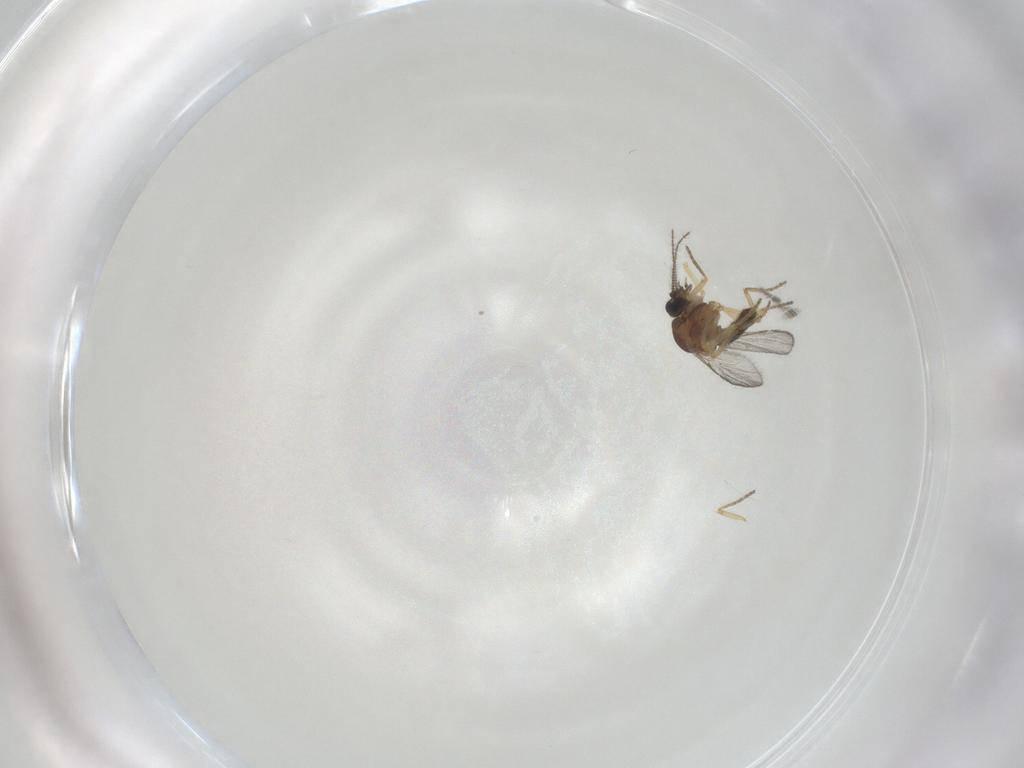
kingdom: Animalia
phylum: Arthropoda
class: Insecta
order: Diptera
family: Ceratopogonidae
